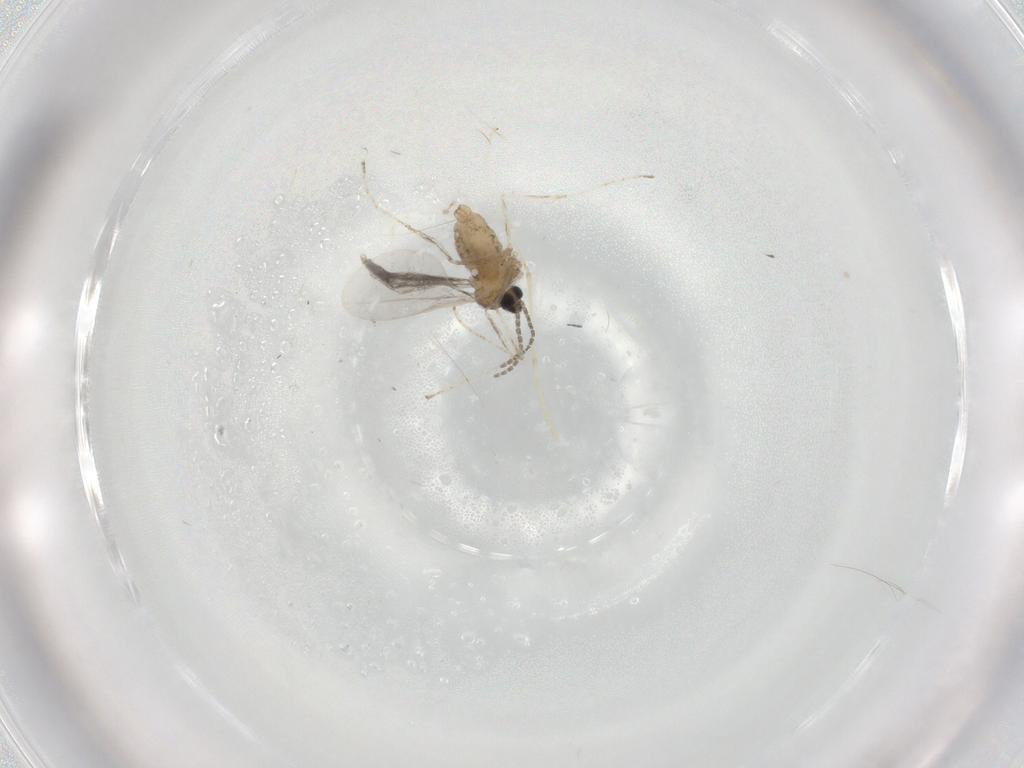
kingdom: Animalia
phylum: Arthropoda
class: Insecta
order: Diptera
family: Cecidomyiidae
